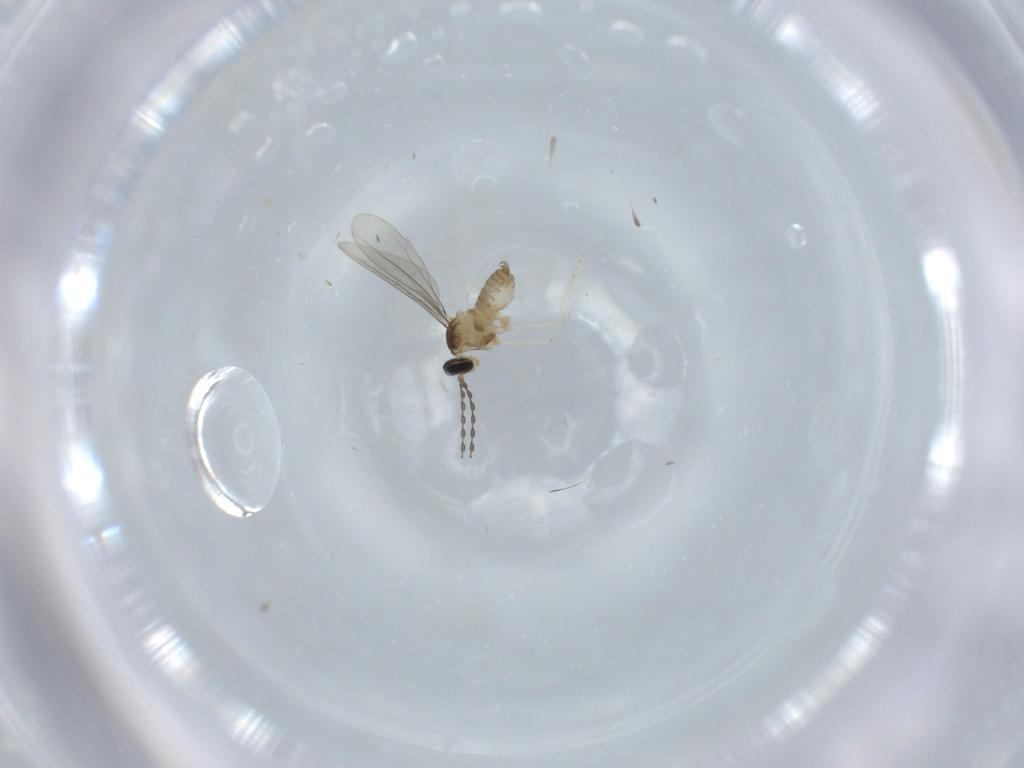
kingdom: Animalia
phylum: Arthropoda
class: Insecta
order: Diptera
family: Cecidomyiidae
